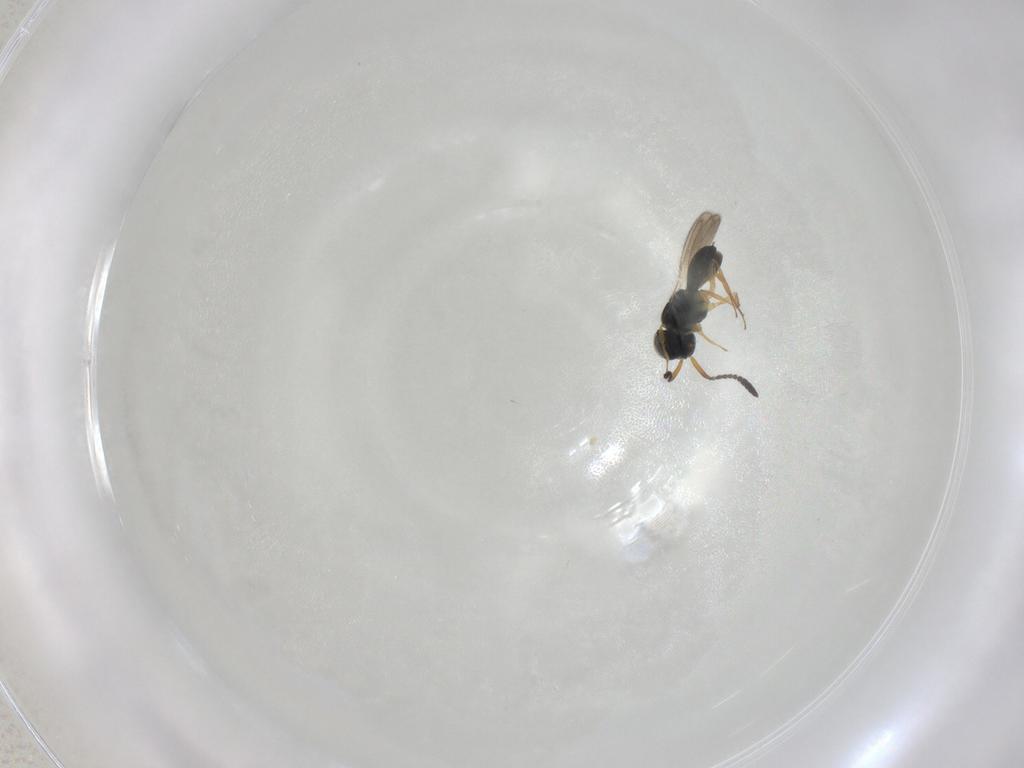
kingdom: Animalia
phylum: Arthropoda
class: Insecta
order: Hymenoptera
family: Scelionidae
